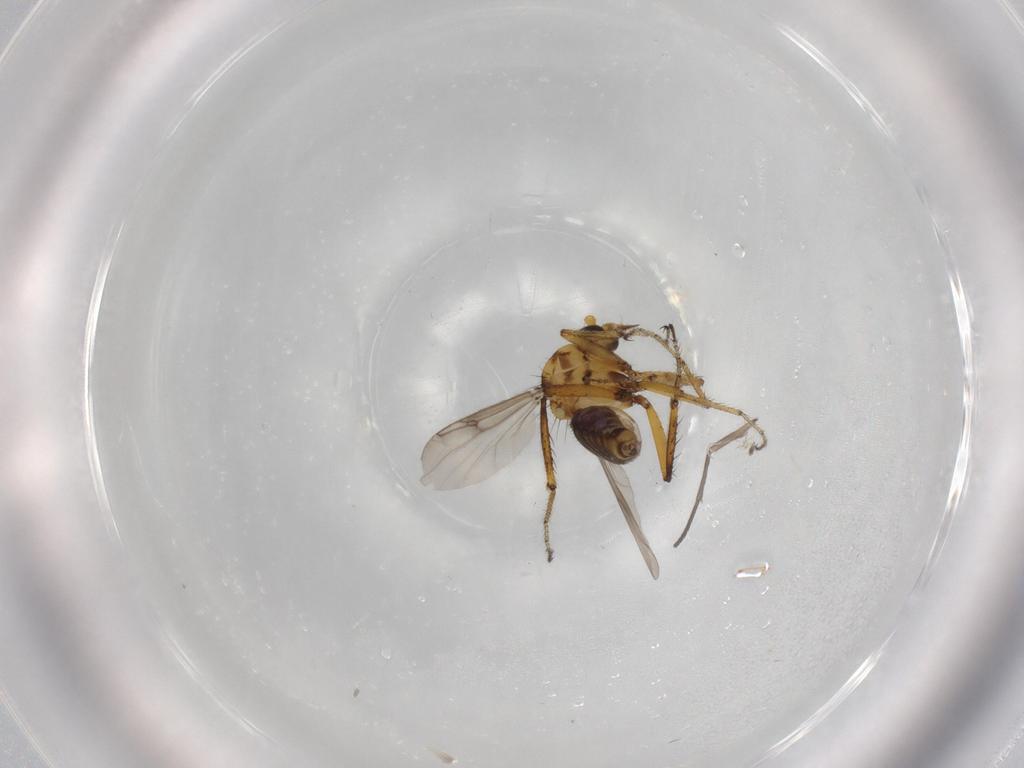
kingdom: Animalia
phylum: Arthropoda
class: Insecta
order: Diptera
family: Ceratopogonidae
